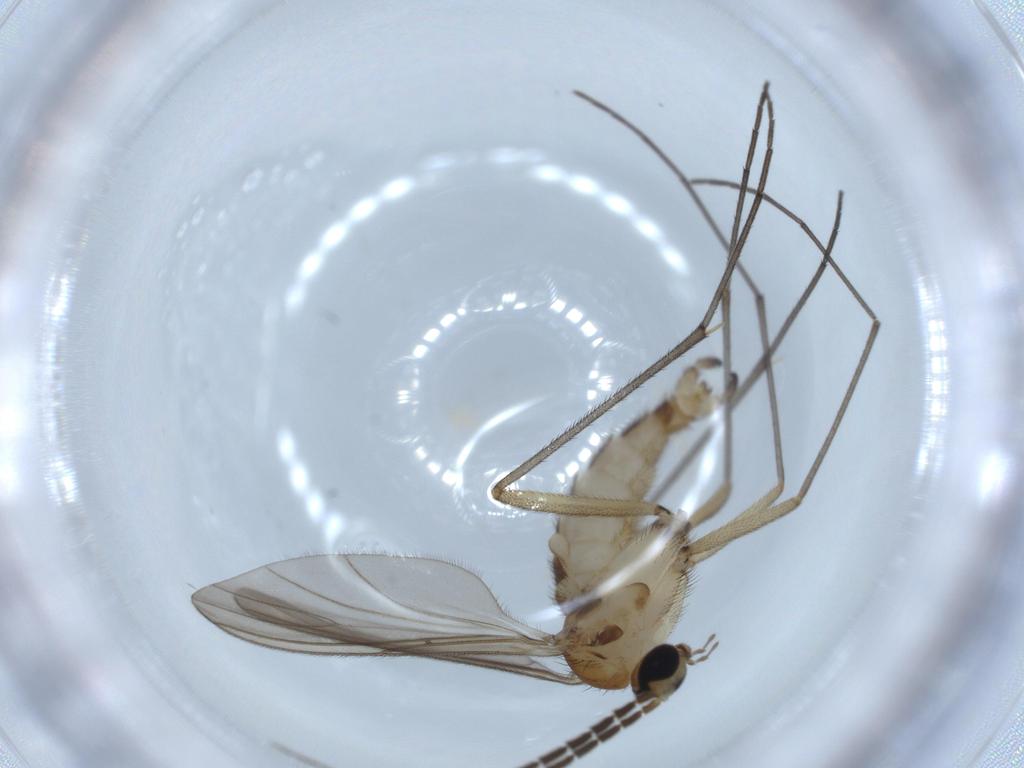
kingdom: Animalia
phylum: Arthropoda
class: Insecta
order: Diptera
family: Sciaridae
